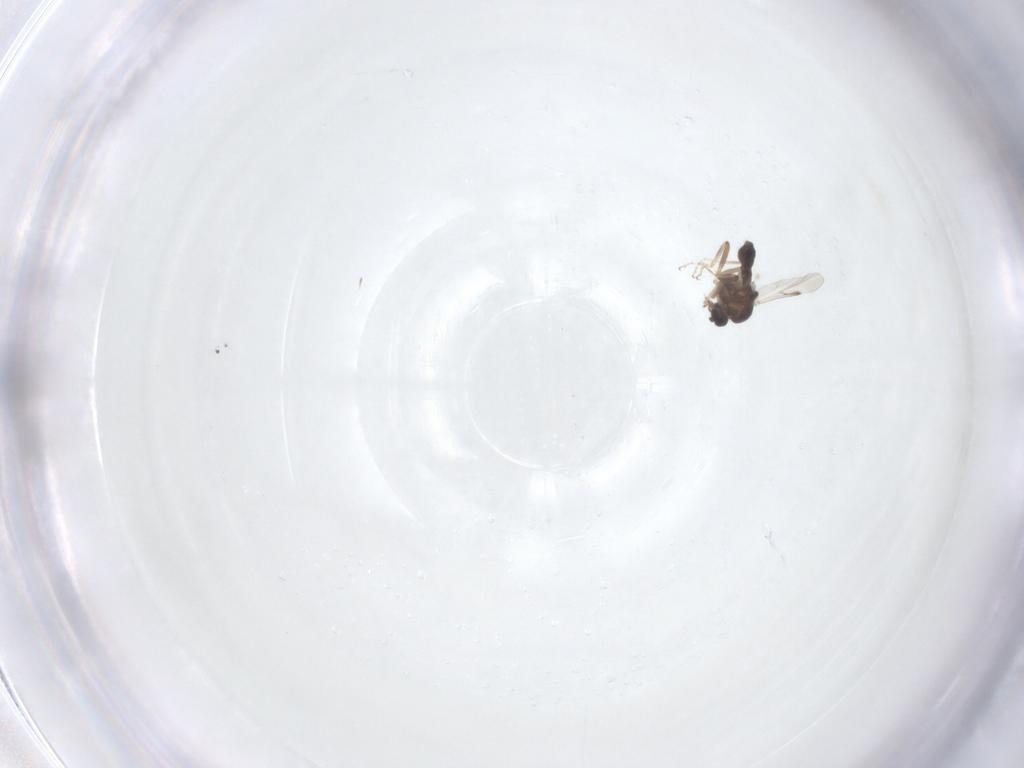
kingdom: Animalia
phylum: Arthropoda
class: Insecta
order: Diptera
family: Ceratopogonidae
